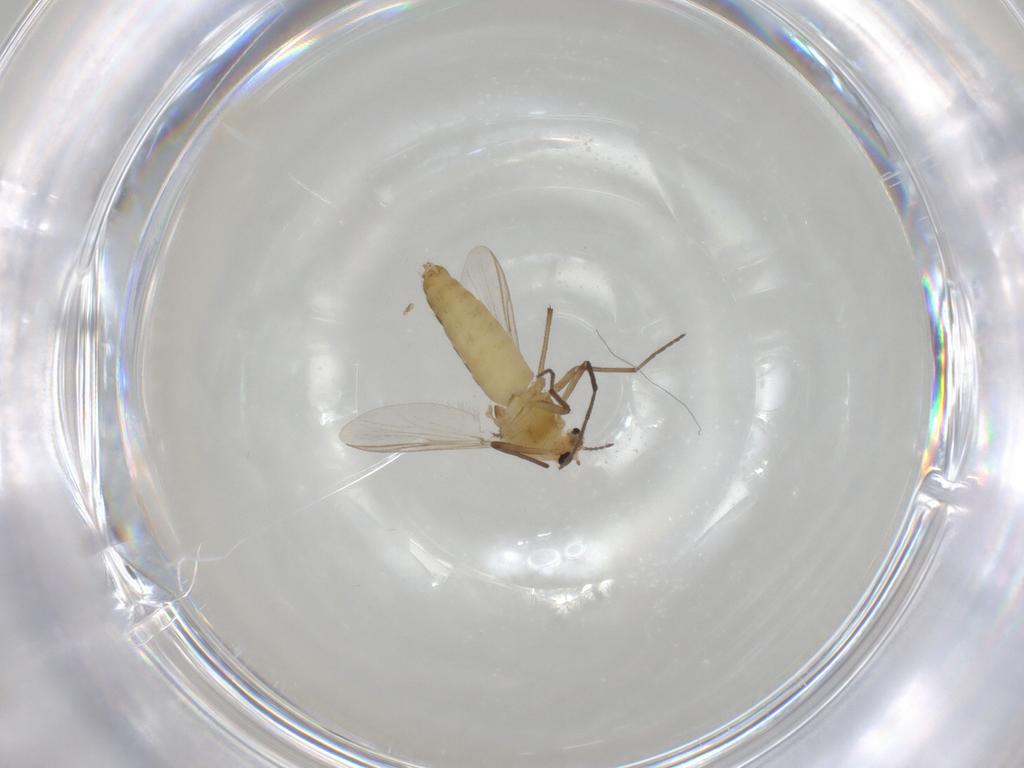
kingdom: Animalia
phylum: Arthropoda
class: Insecta
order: Diptera
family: Chironomidae
